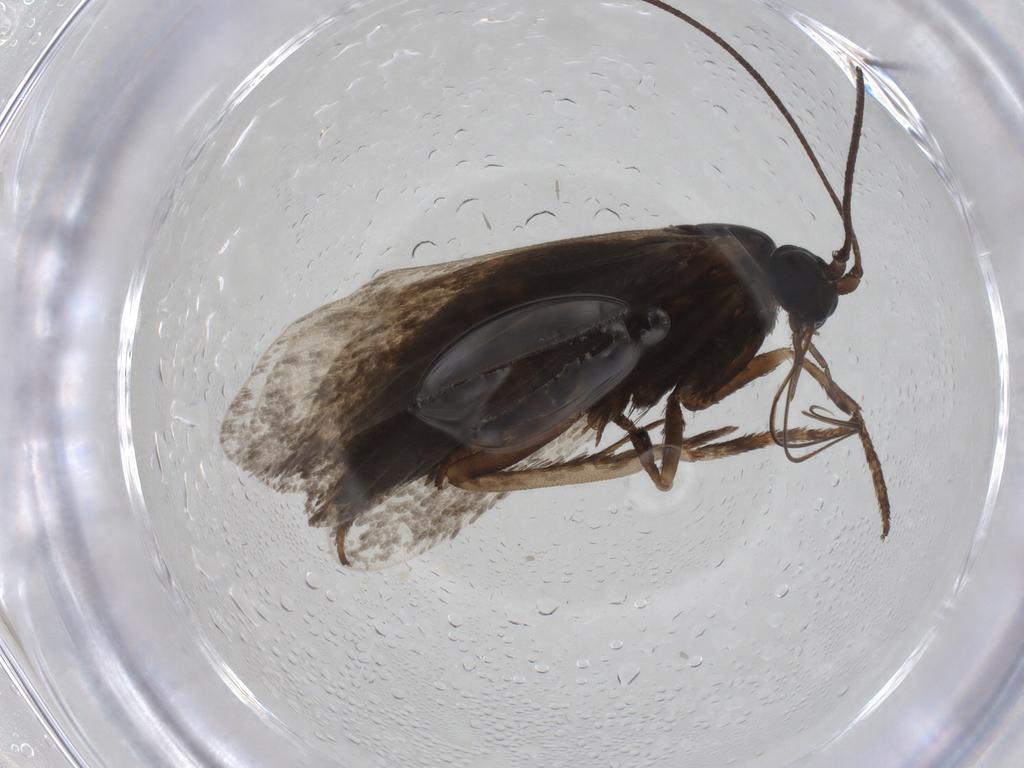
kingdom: Animalia
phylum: Arthropoda
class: Insecta
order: Lepidoptera
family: Adelidae
